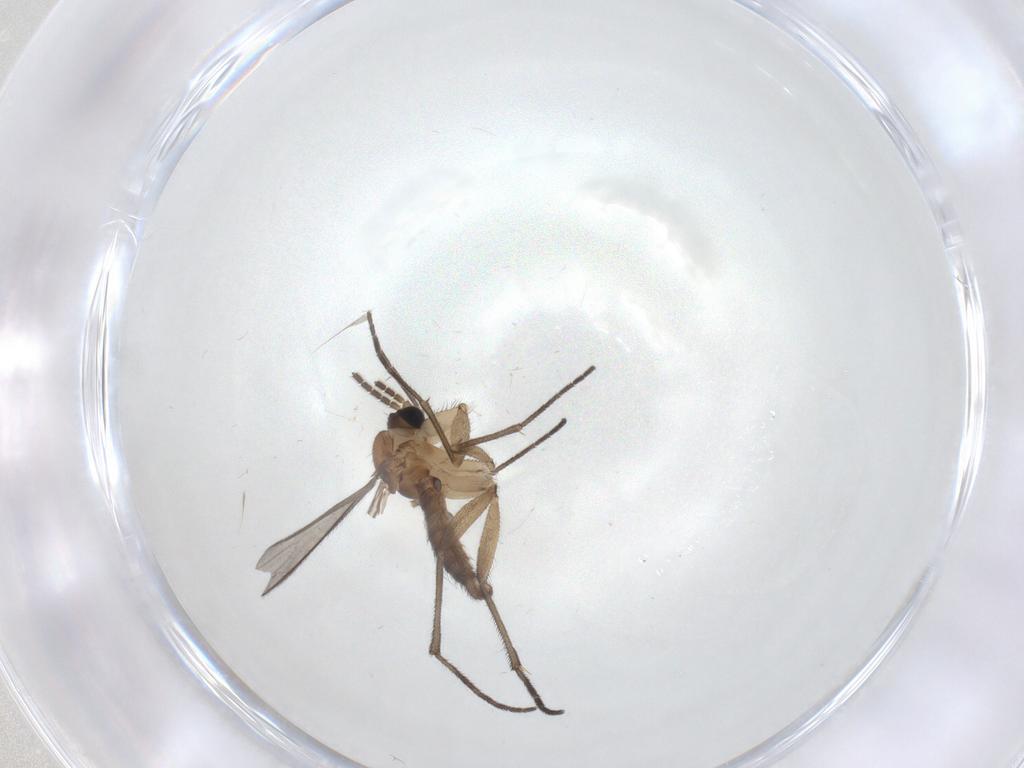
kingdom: Animalia
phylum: Arthropoda
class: Insecta
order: Diptera
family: Sciaridae
